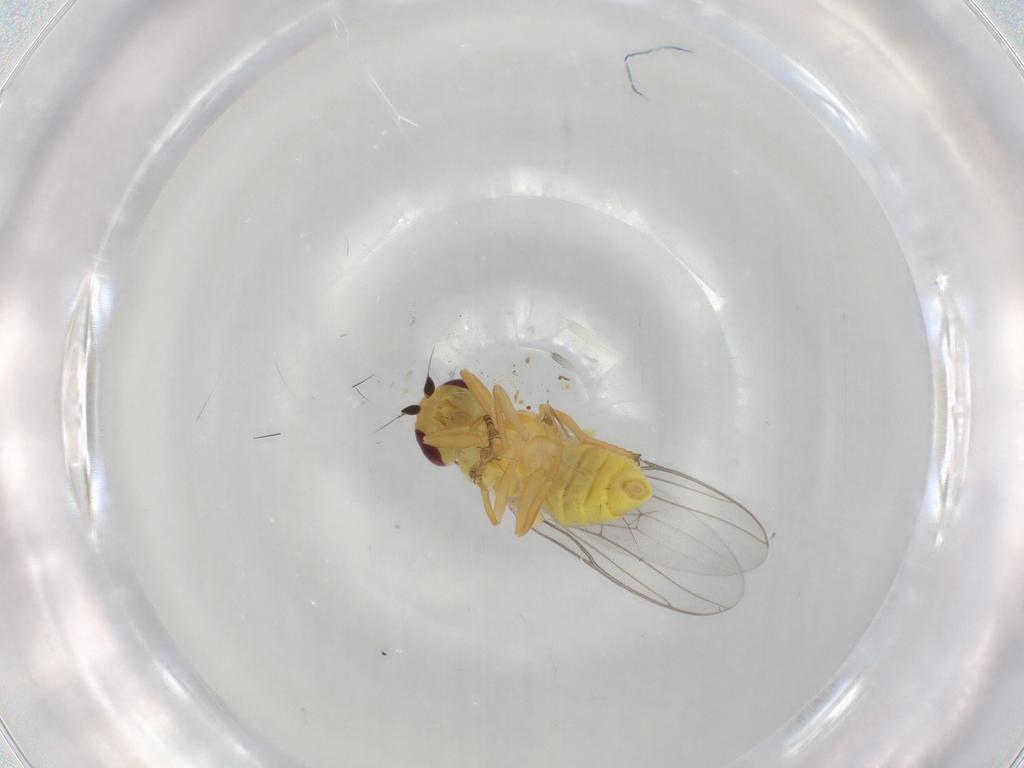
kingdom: Animalia
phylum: Arthropoda
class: Insecta
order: Diptera
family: Chloropidae
